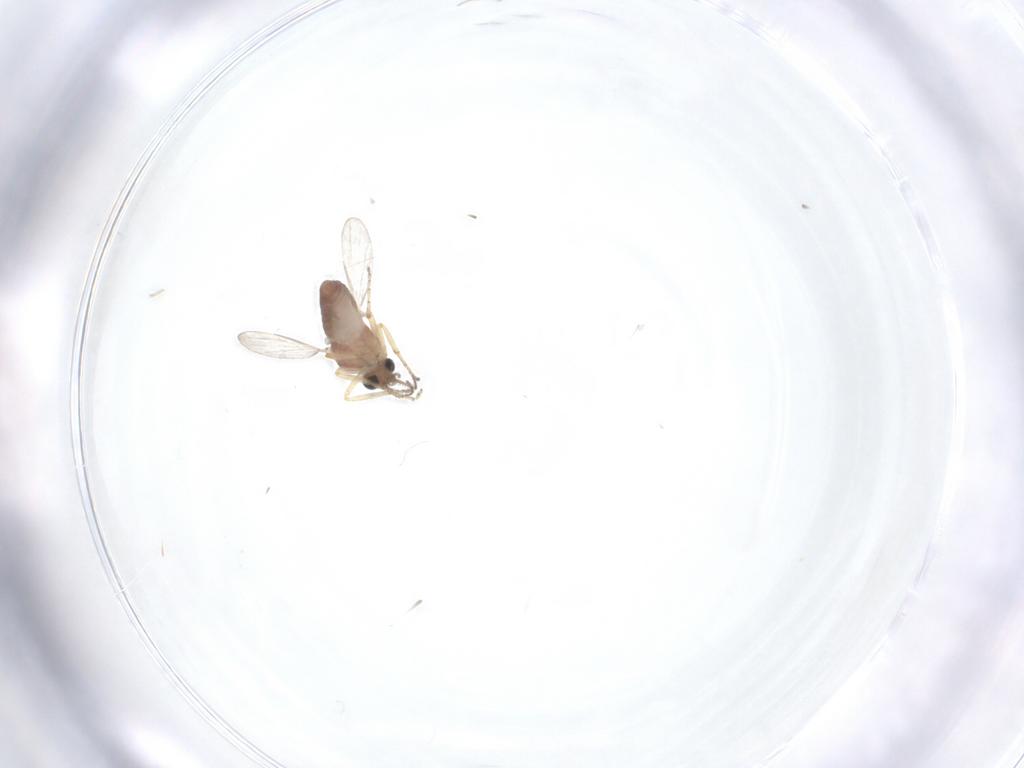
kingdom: Animalia
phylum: Arthropoda
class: Insecta
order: Diptera
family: Ceratopogonidae
